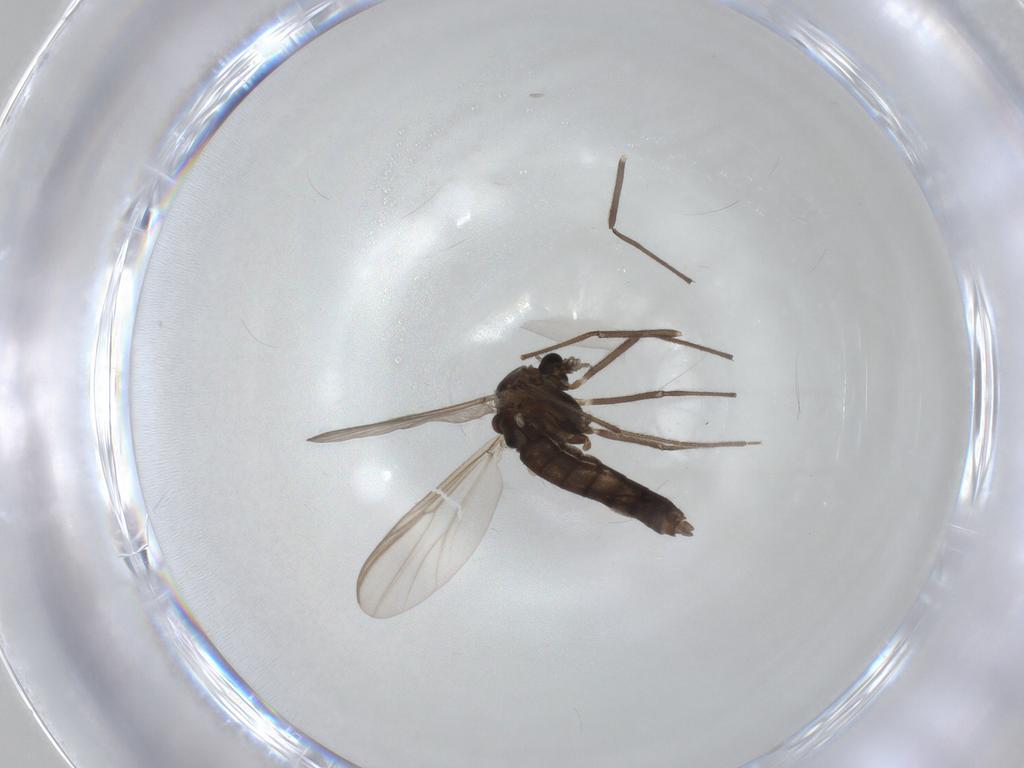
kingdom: Animalia
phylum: Arthropoda
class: Insecta
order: Diptera
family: Chironomidae
